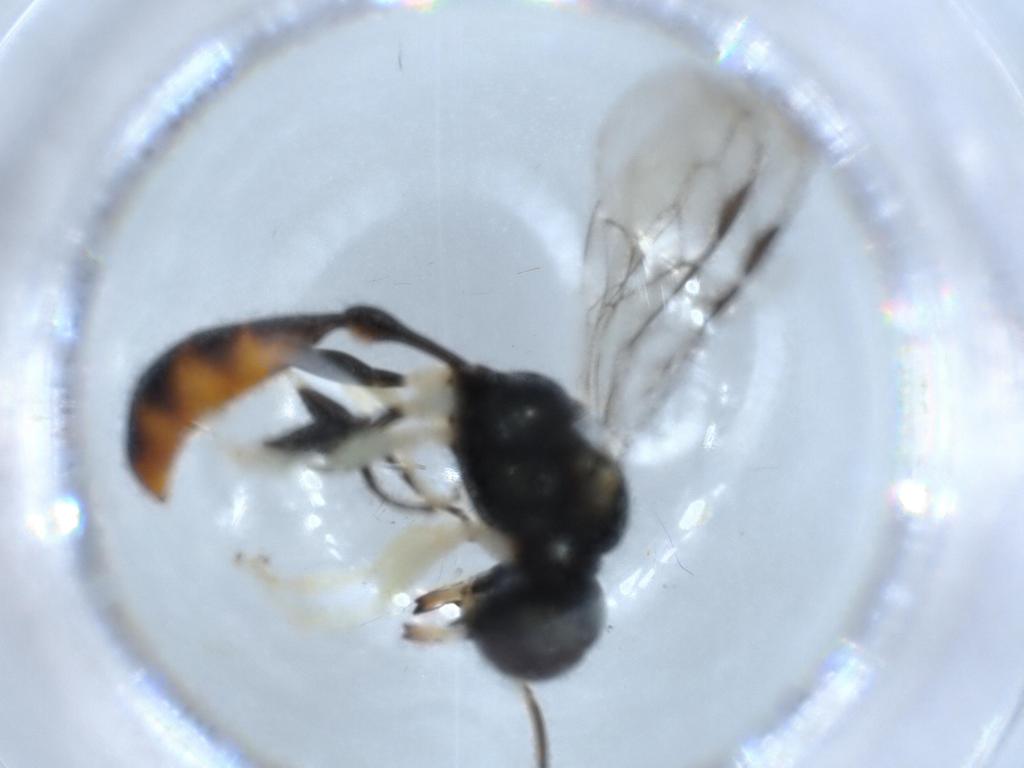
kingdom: Animalia
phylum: Arthropoda
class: Insecta
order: Hymenoptera
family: Crabronidae
